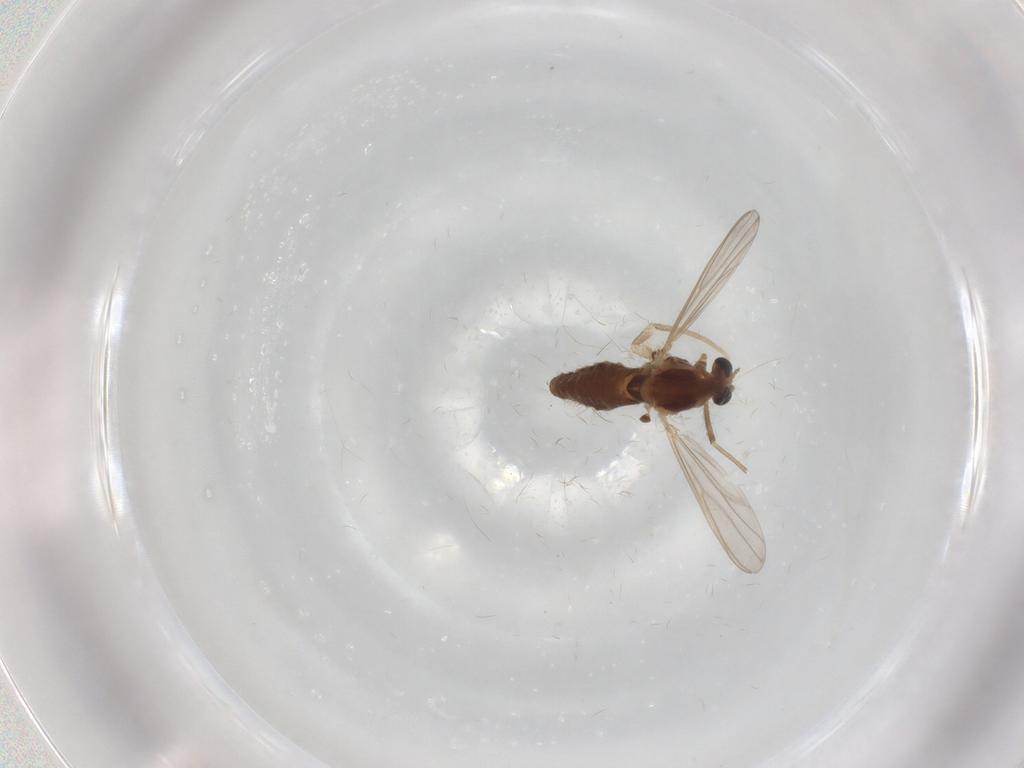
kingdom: Animalia
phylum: Arthropoda
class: Insecta
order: Diptera
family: Chironomidae
